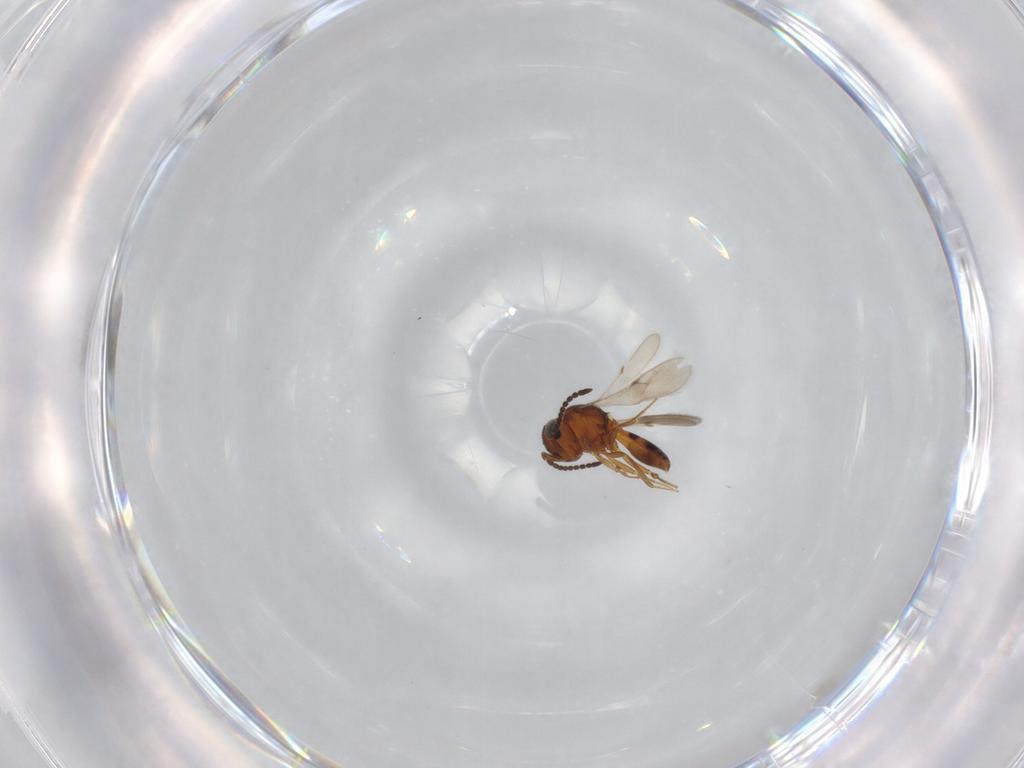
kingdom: Animalia
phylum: Arthropoda
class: Insecta
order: Hymenoptera
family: Scelionidae
